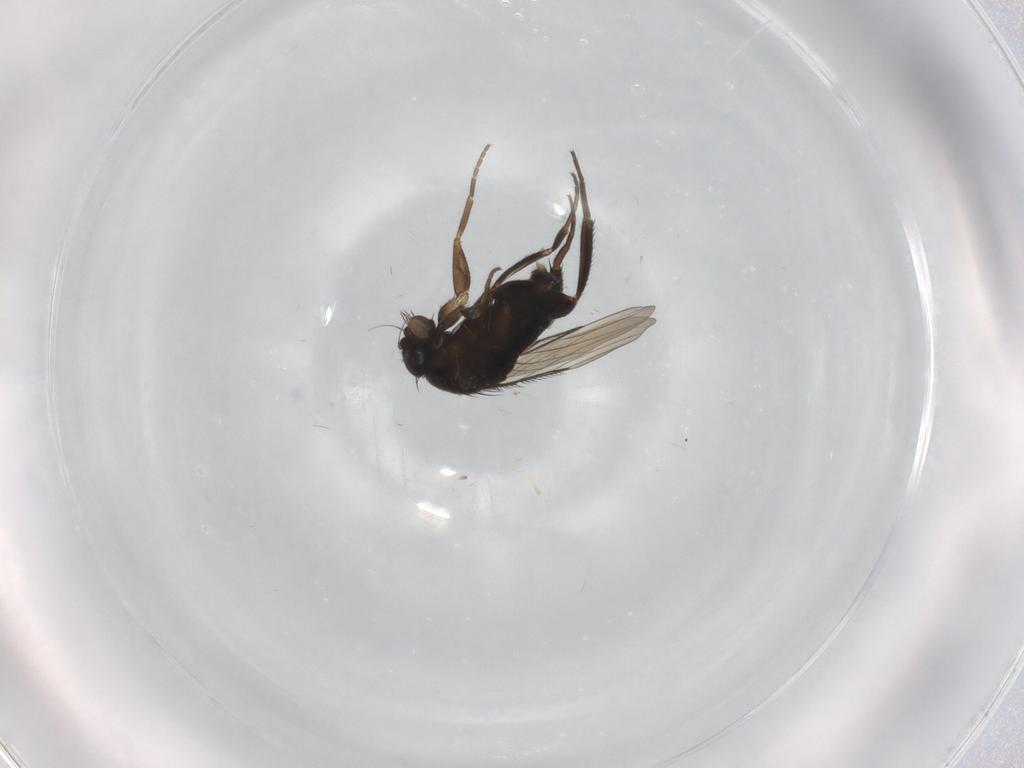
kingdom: Animalia
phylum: Arthropoda
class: Insecta
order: Diptera
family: Phoridae
